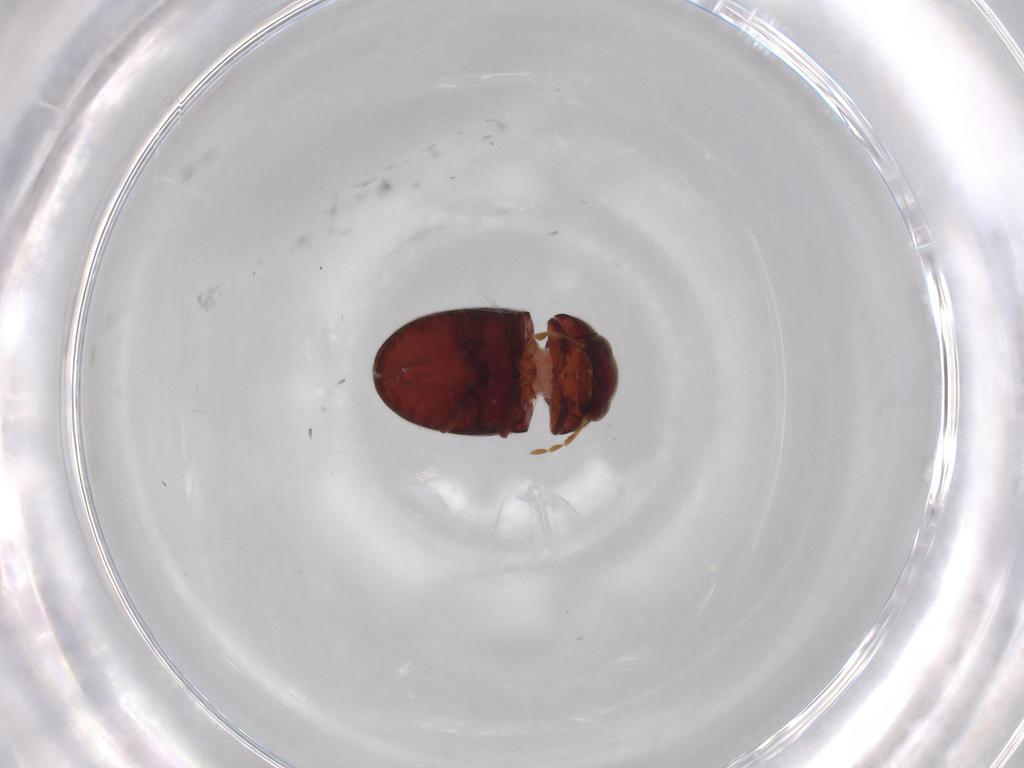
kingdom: Animalia
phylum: Arthropoda
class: Insecta
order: Coleoptera
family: Ptinidae
